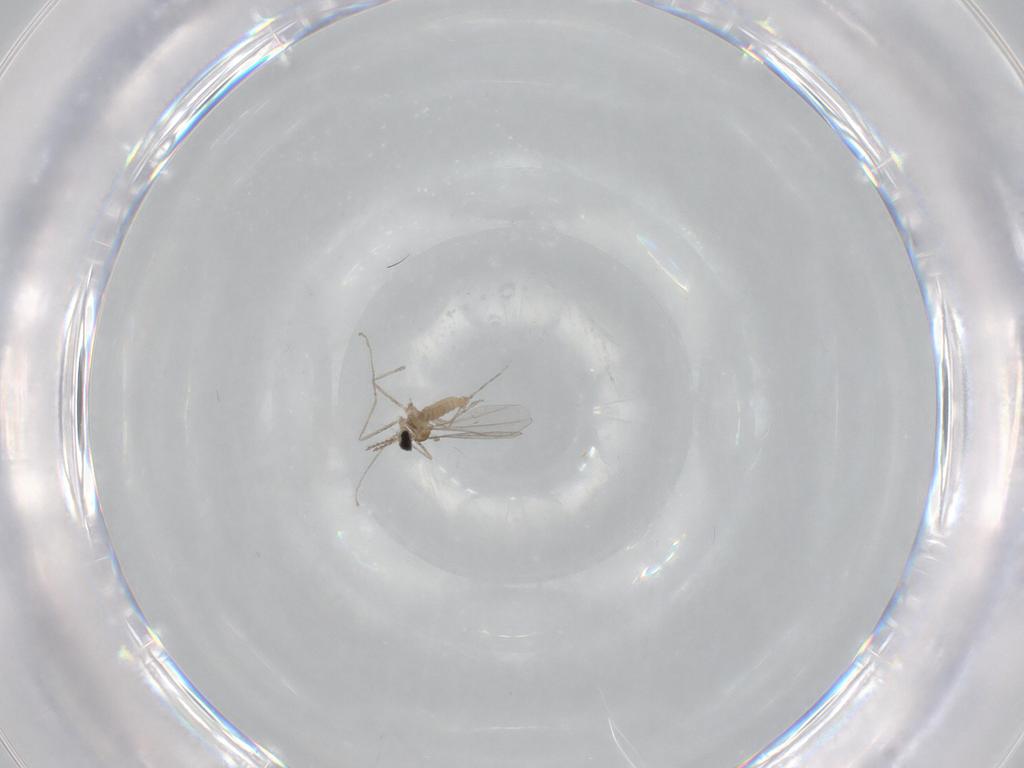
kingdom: Animalia
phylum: Arthropoda
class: Insecta
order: Diptera
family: Cecidomyiidae
